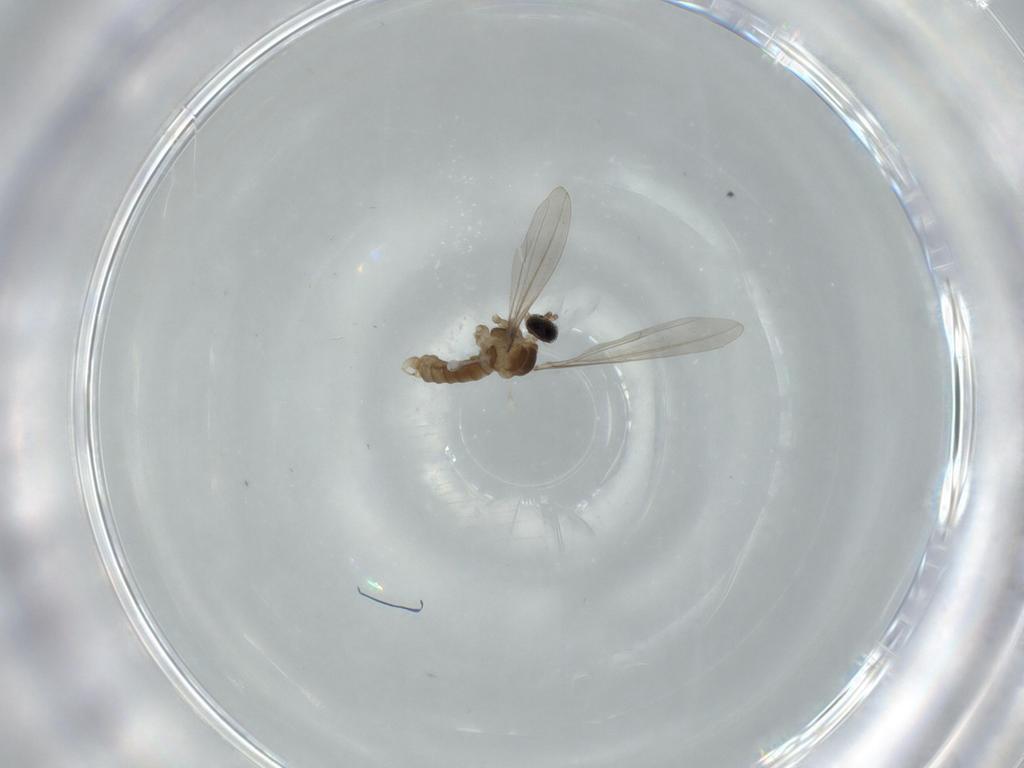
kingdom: Animalia
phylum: Arthropoda
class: Insecta
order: Diptera
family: Cecidomyiidae
